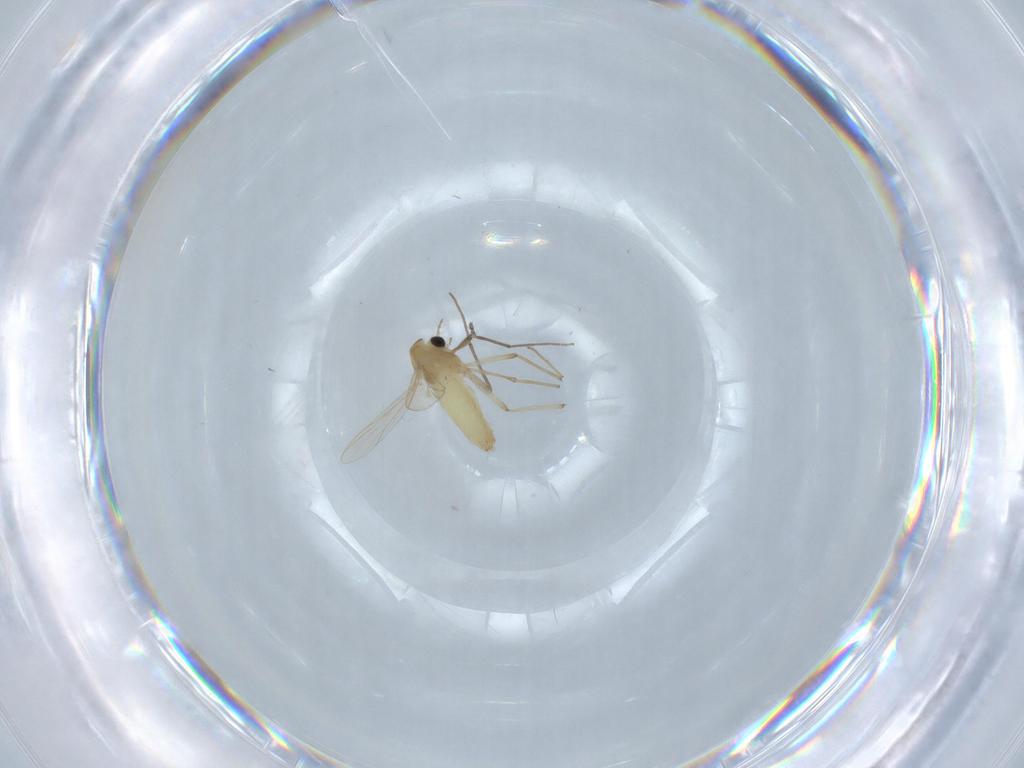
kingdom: Animalia
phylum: Arthropoda
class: Insecta
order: Diptera
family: Chironomidae
